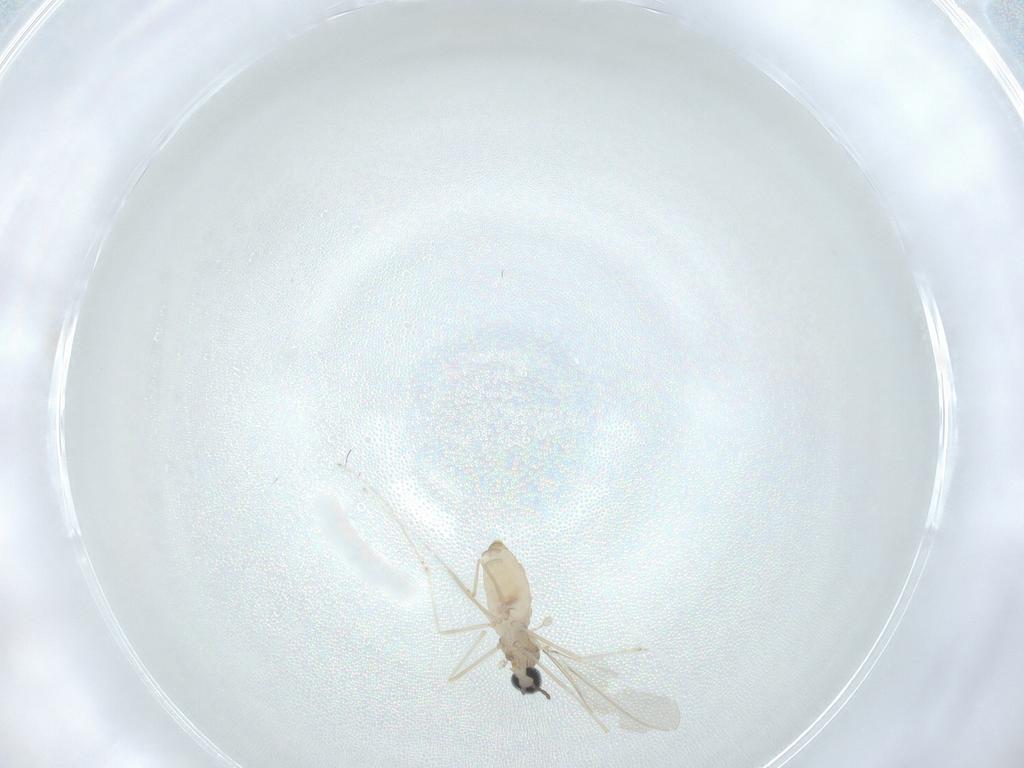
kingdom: Animalia
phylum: Arthropoda
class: Insecta
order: Diptera
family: Cecidomyiidae
